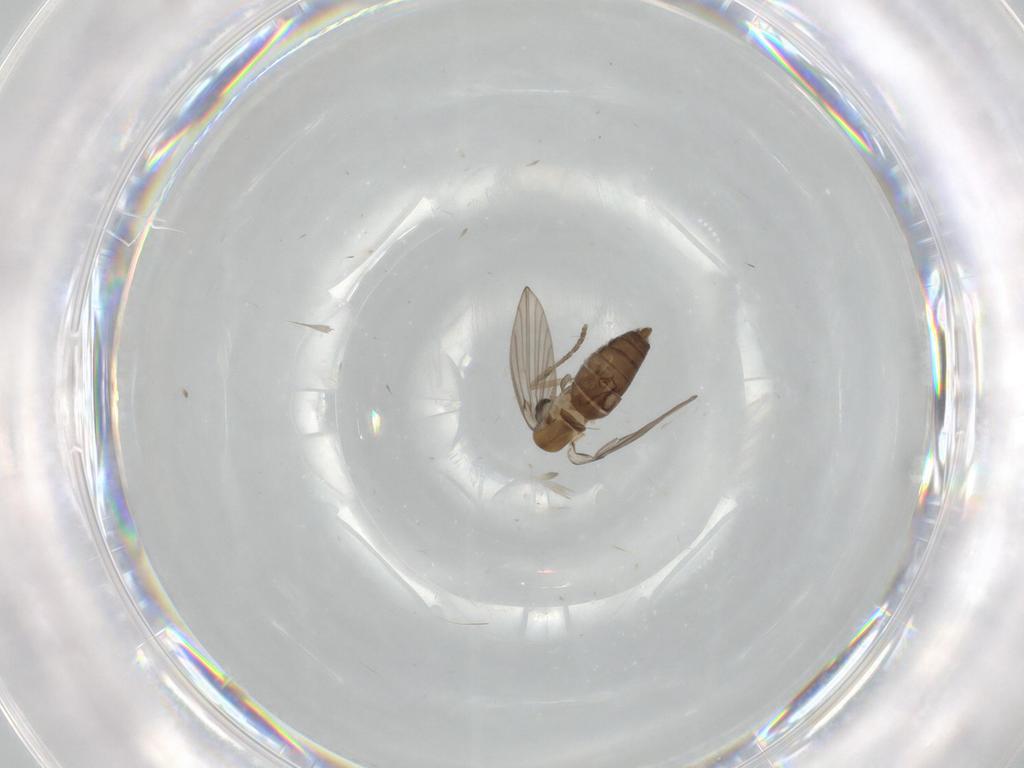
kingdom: Animalia
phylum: Arthropoda
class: Insecta
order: Diptera
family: Psychodidae
